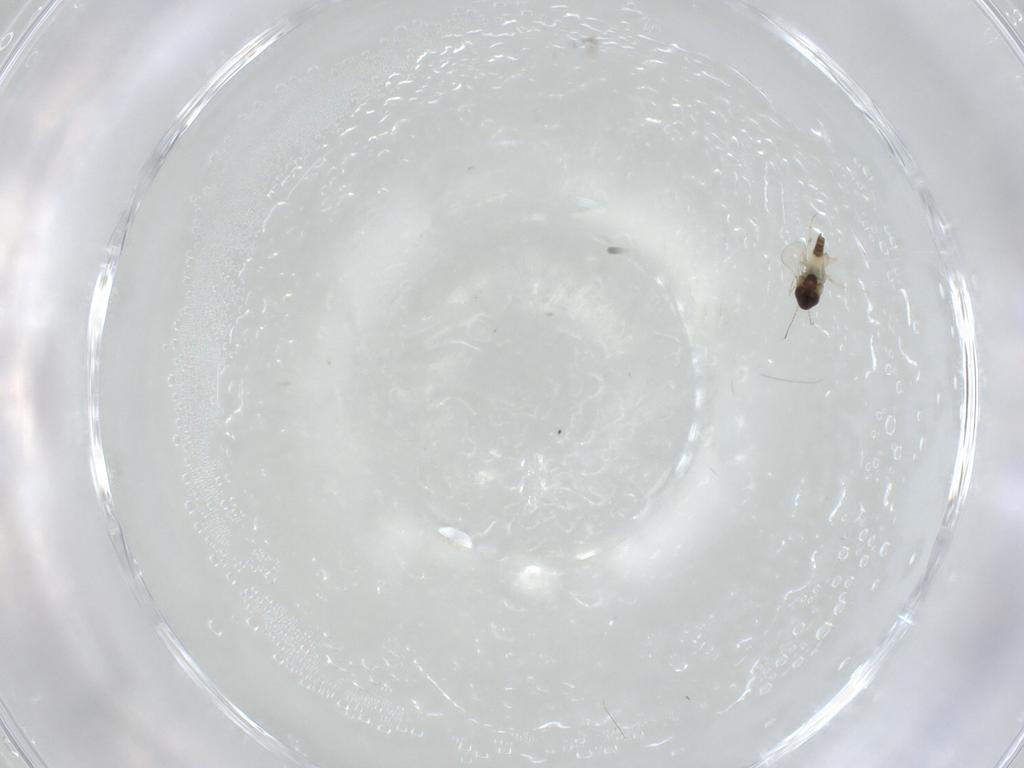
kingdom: Animalia
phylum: Arthropoda
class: Insecta
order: Diptera
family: Chironomidae
